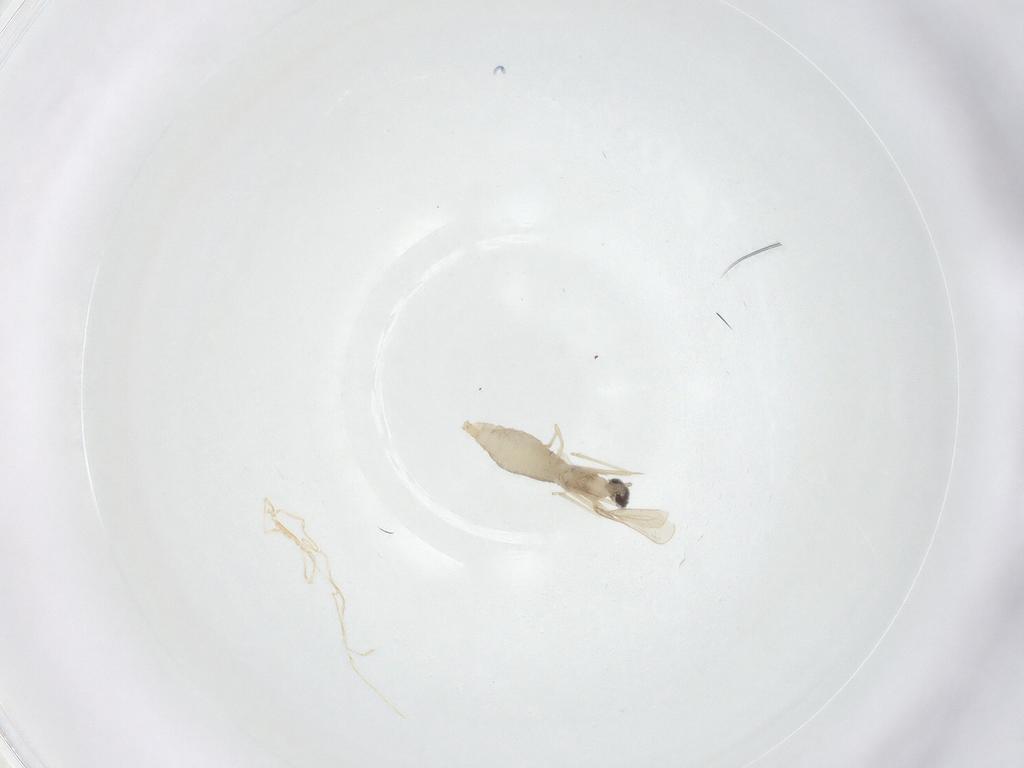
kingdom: Animalia
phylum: Arthropoda
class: Insecta
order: Diptera
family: Cecidomyiidae
